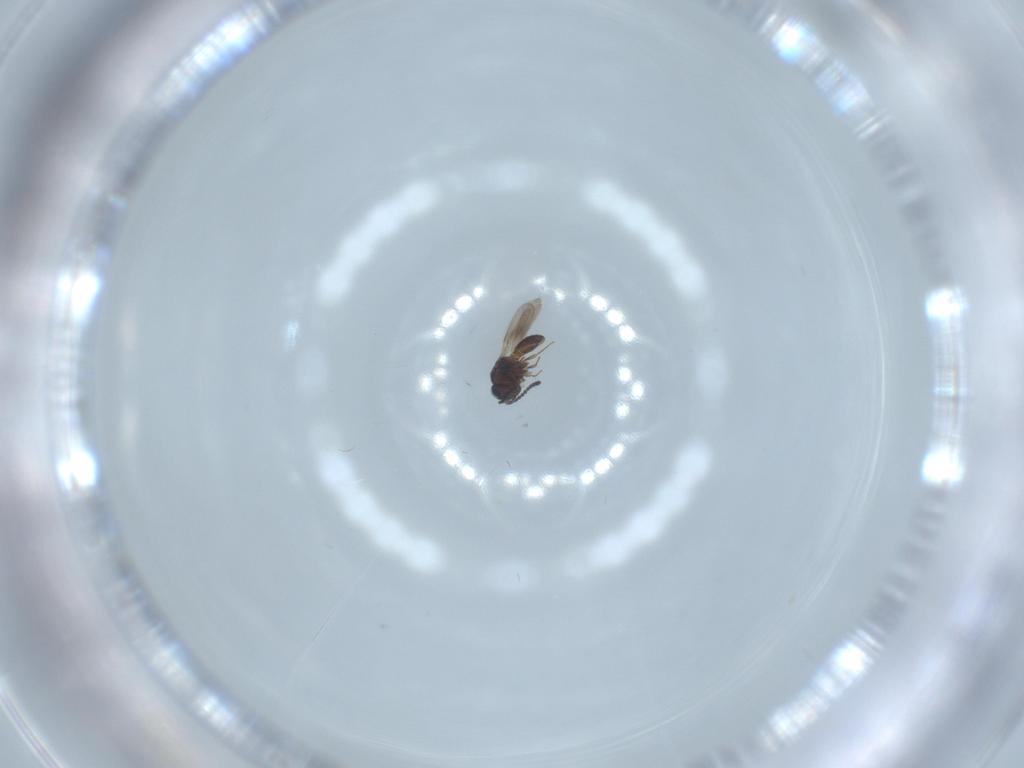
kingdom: Animalia
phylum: Arthropoda
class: Insecta
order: Hymenoptera
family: Scelionidae
